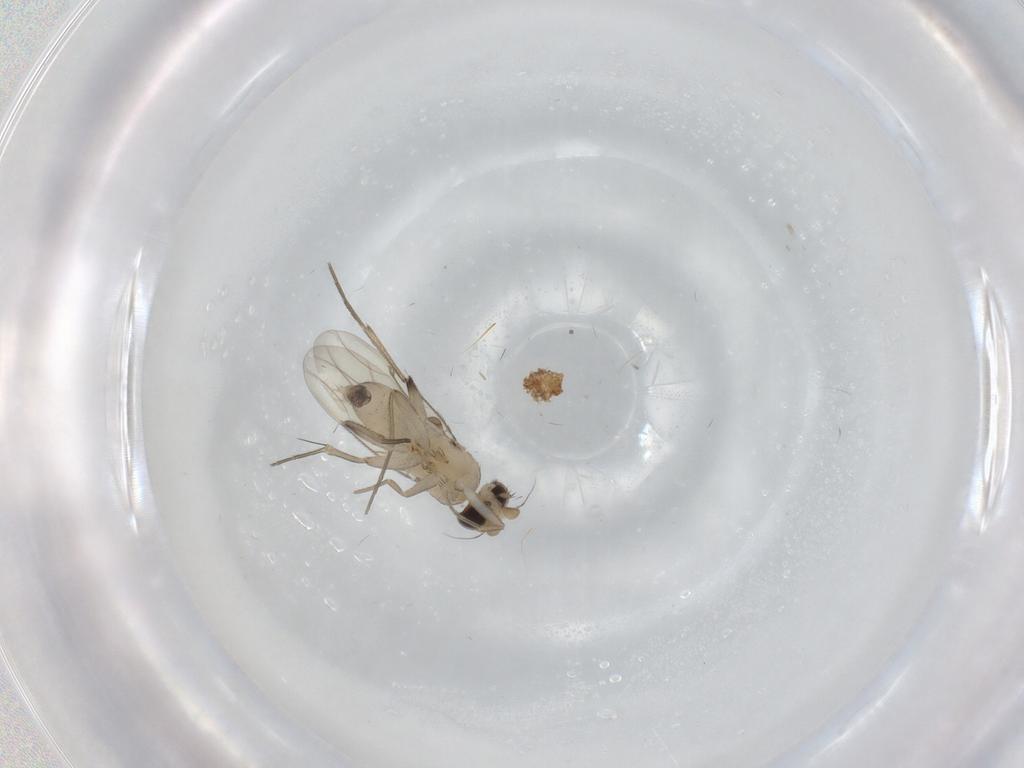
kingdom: Animalia
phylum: Arthropoda
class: Insecta
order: Diptera
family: Phoridae
